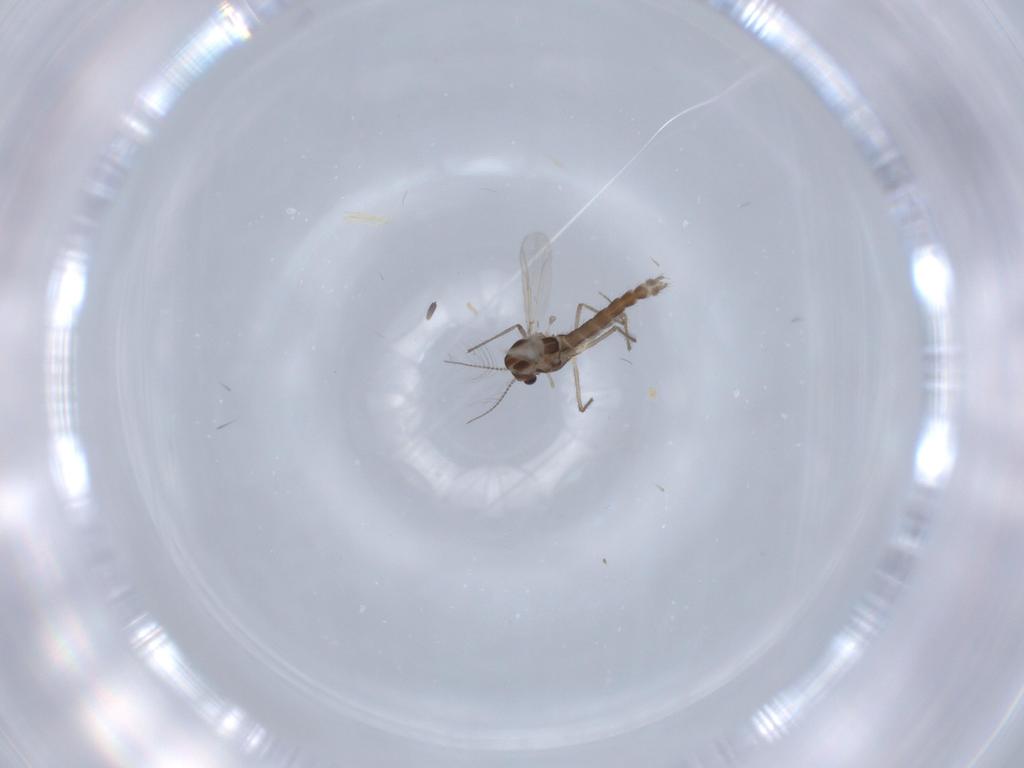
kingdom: Animalia
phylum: Arthropoda
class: Insecta
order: Diptera
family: Chironomidae
